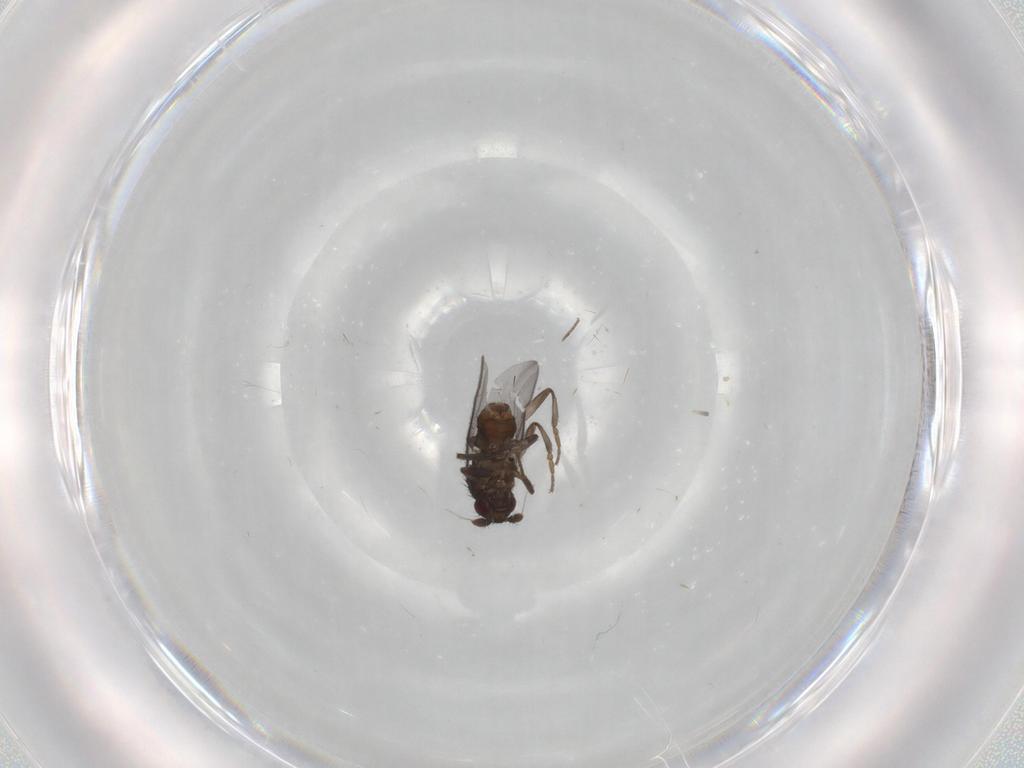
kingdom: Animalia
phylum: Arthropoda
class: Insecta
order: Diptera
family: Sphaeroceridae
